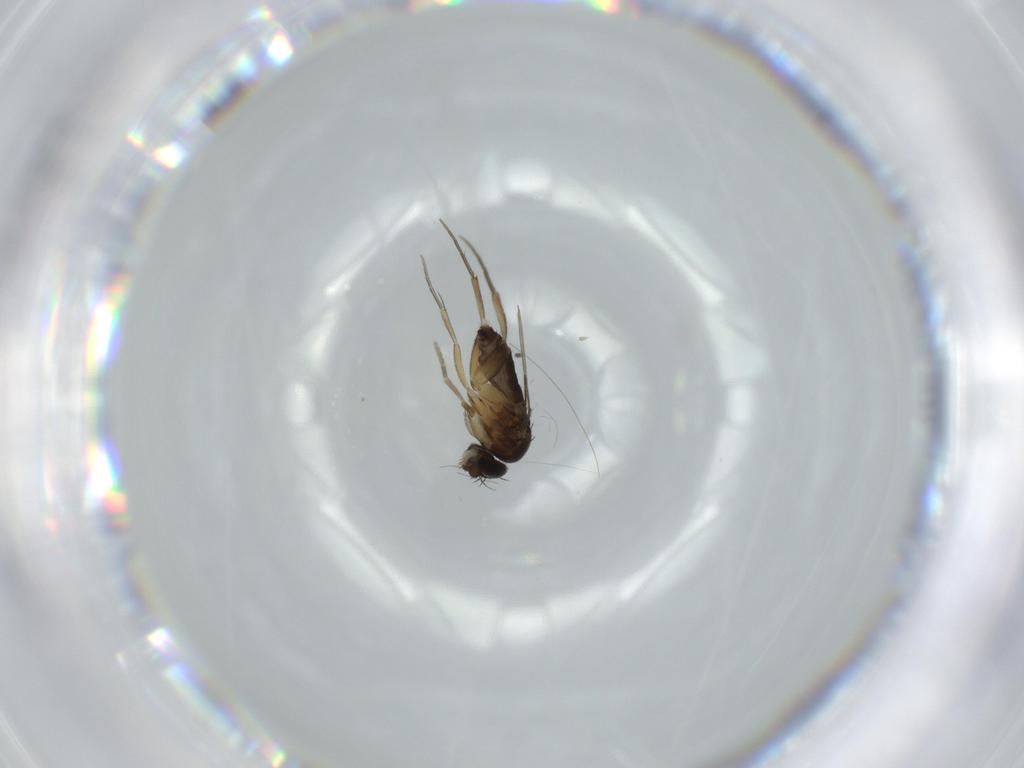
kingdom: Animalia
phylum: Arthropoda
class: Insecta
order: Diptera
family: Phoridae
